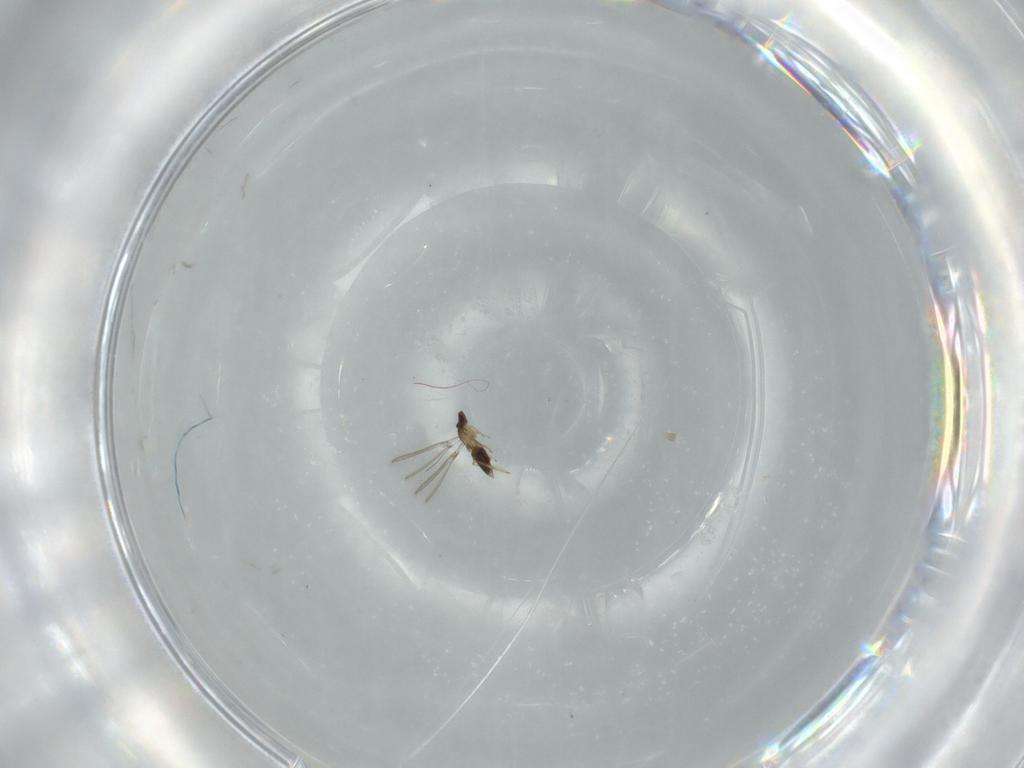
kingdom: Animalia
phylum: Arthropoda
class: Insecta
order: Hymenoptera
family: Mymaridae
